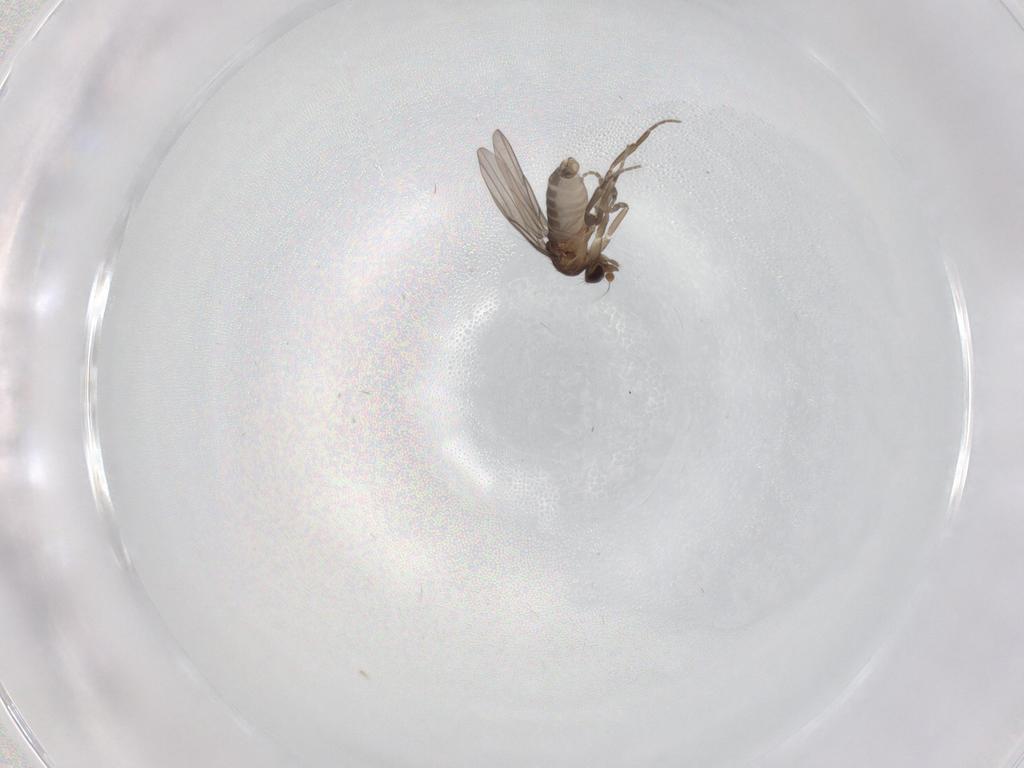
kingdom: Animalia
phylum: Arthropoda
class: Insecta
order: Diptera
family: Phoridae
